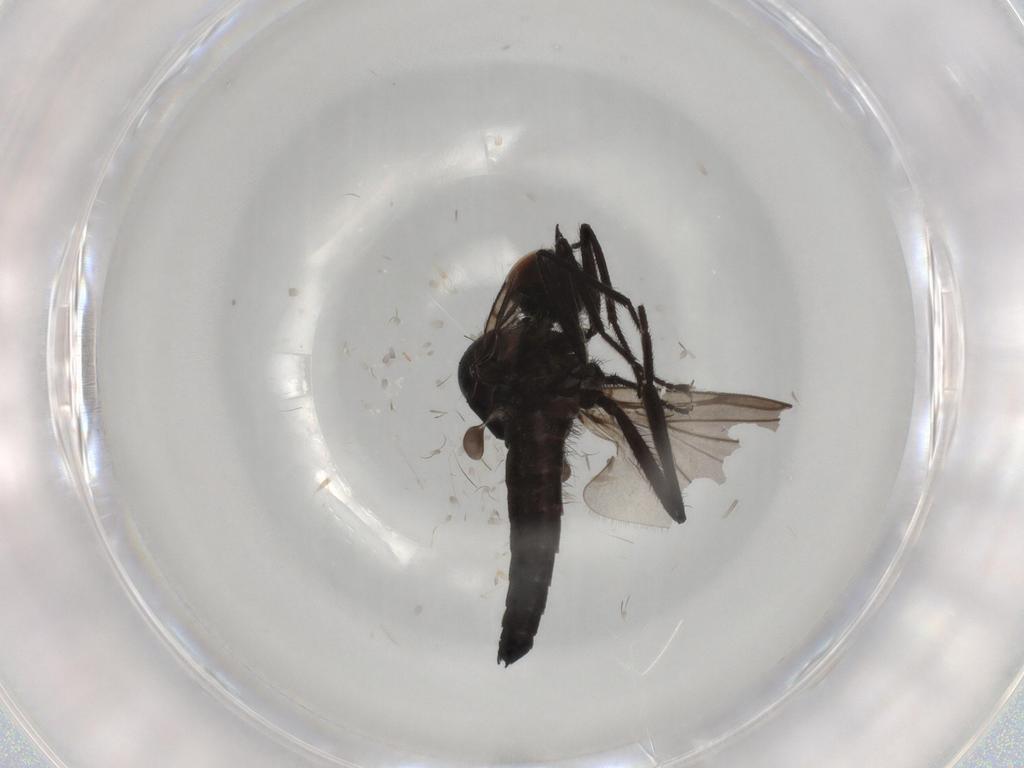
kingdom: Animalia
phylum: Arthropoda
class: Insecta
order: Diptera
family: Hybotidae
